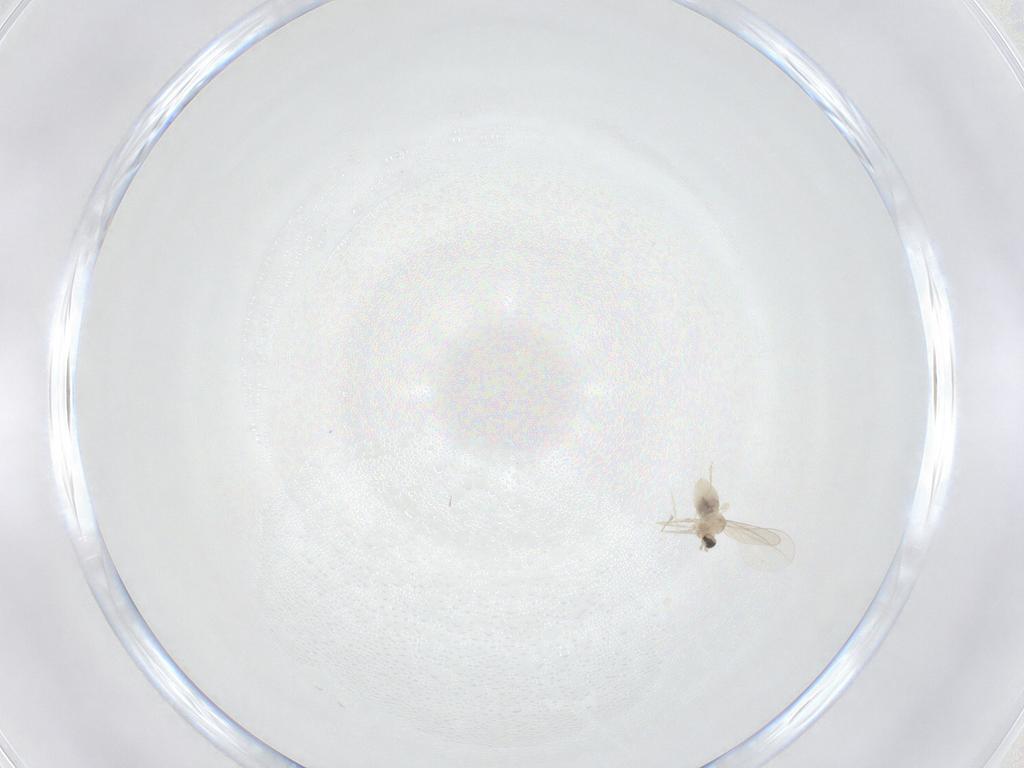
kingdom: Animalia
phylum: Arthropoda
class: Insecta
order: Diptera
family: Cecidomyiidae
